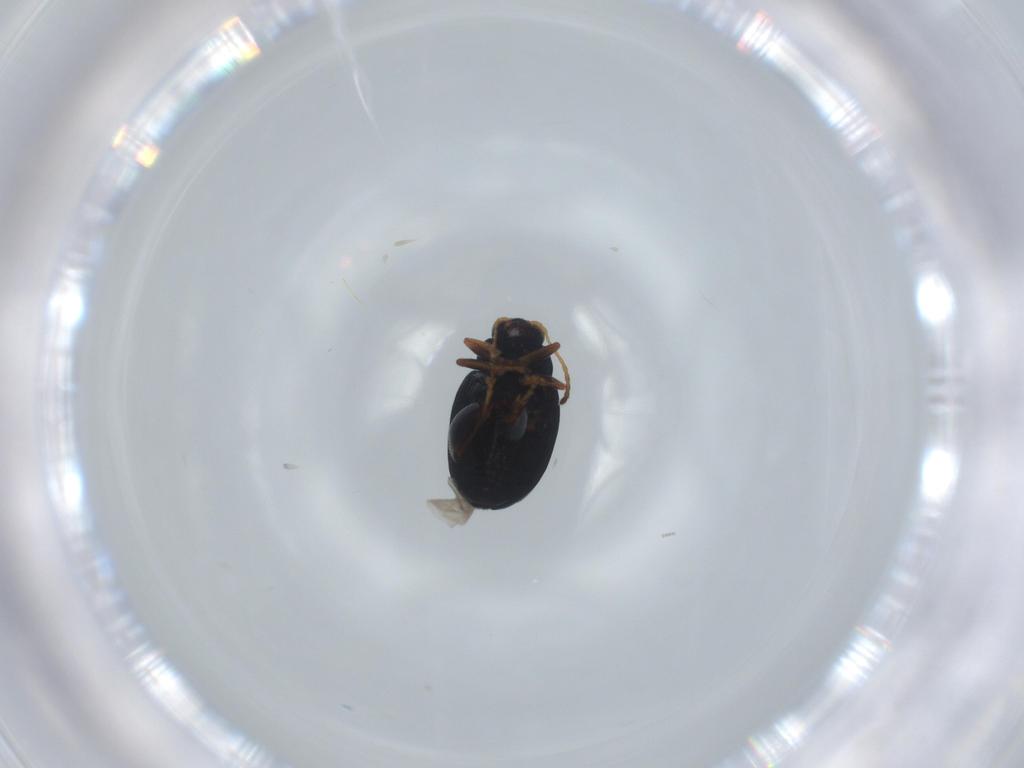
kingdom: Animalia
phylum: Arthropoda
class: Insecta
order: Coleoptera
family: Chrysomelidae
